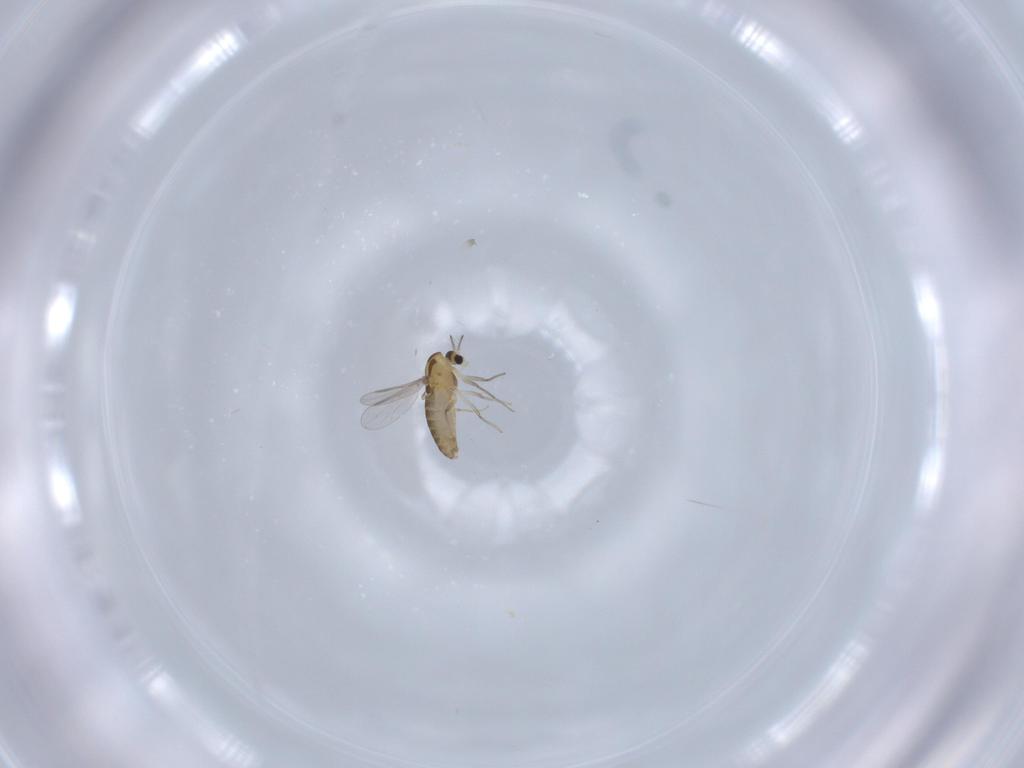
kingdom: Animalia
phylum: Arthropoda
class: Insecta
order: Diptera
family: Chironomidae
